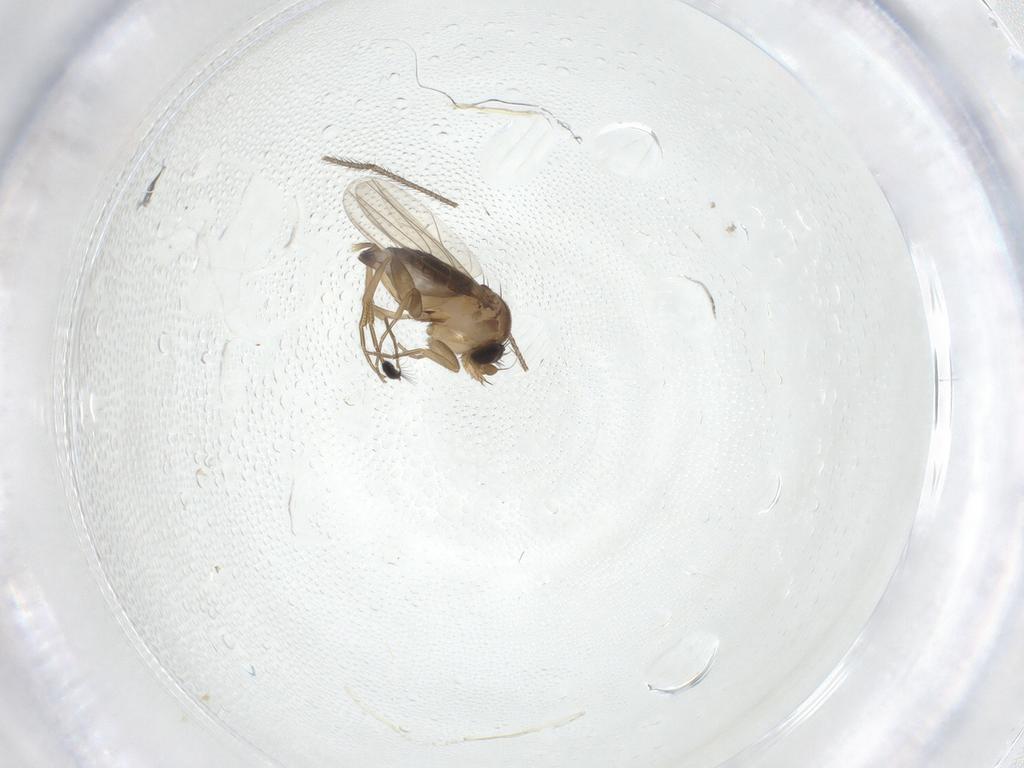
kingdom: Animalia
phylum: Arthropoda
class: Insecta
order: Diptera
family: Phoridae
